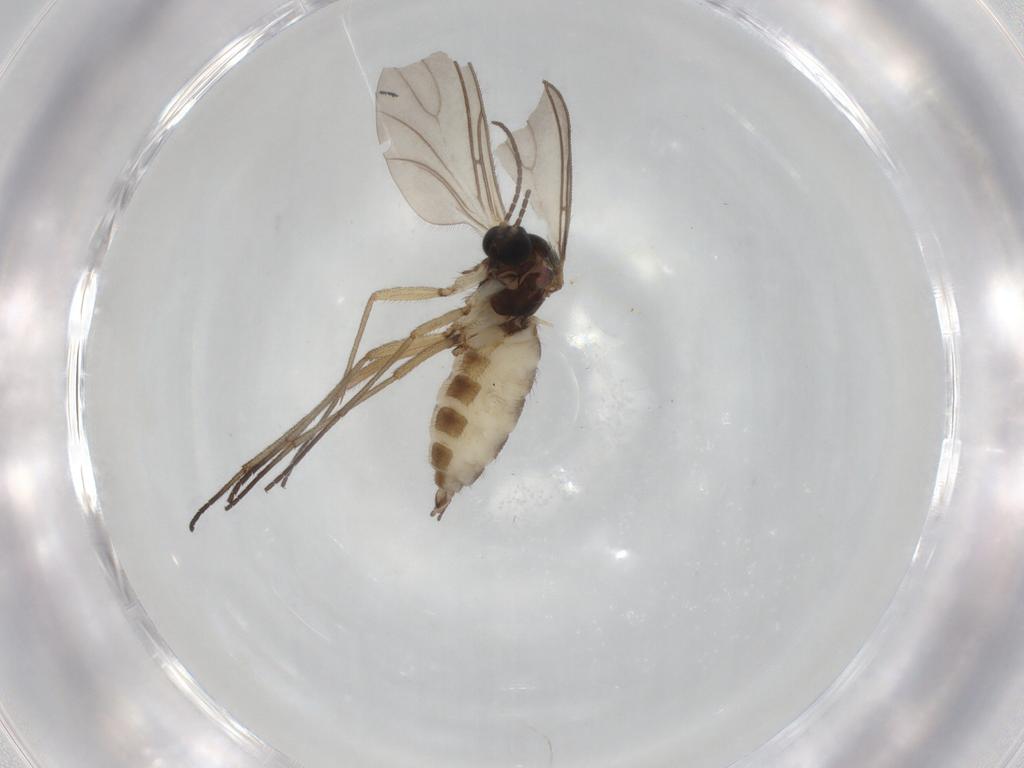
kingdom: Animalia
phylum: Arthropoda
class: Insecta
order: Diptera
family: Sciaridae
